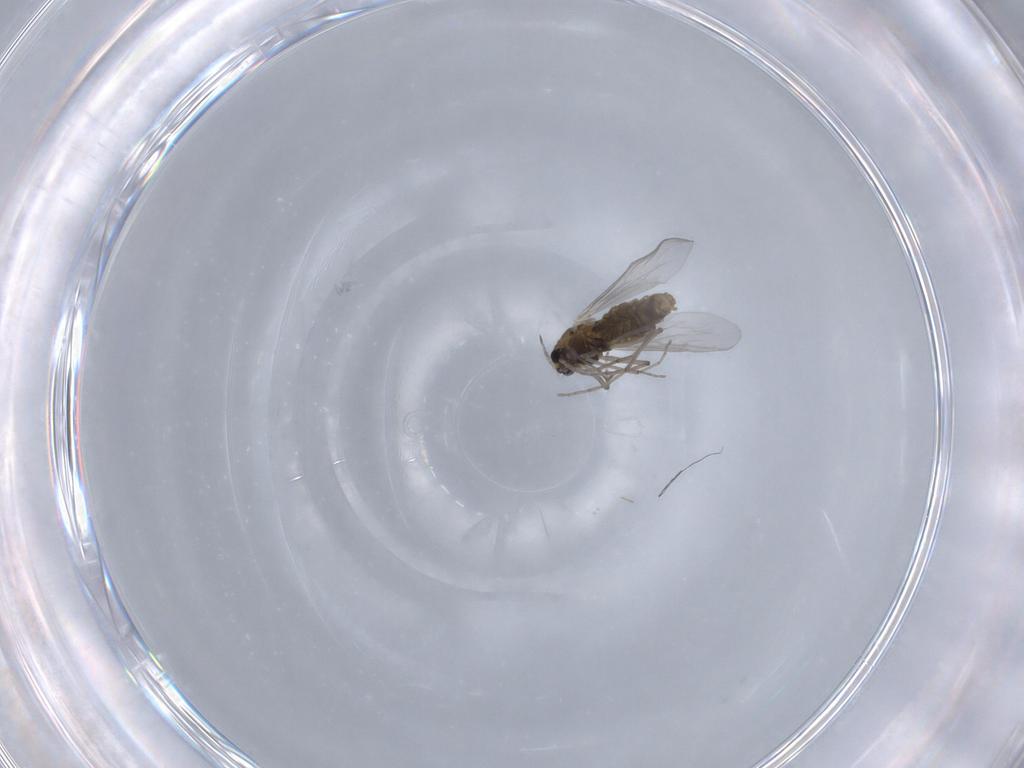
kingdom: Animalia
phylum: Arthropoda
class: Insecta
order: Diptera
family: Chironomidae
